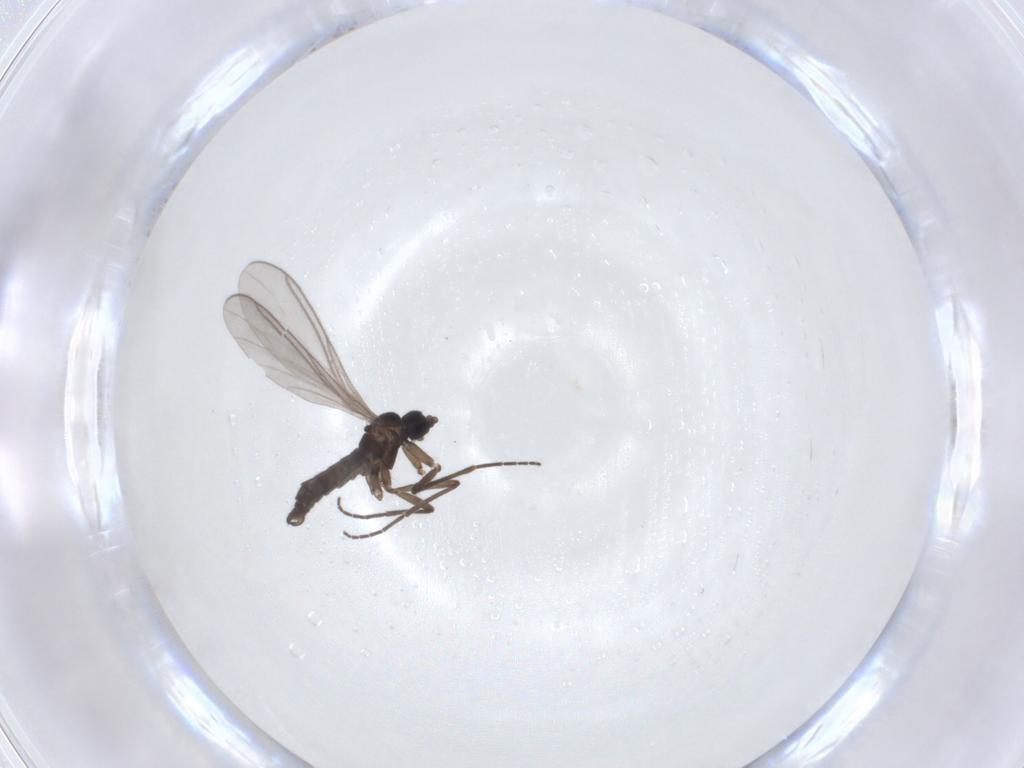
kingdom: Animalia
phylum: Arthropoda
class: Insecta
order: Diptera
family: Sciaridae
